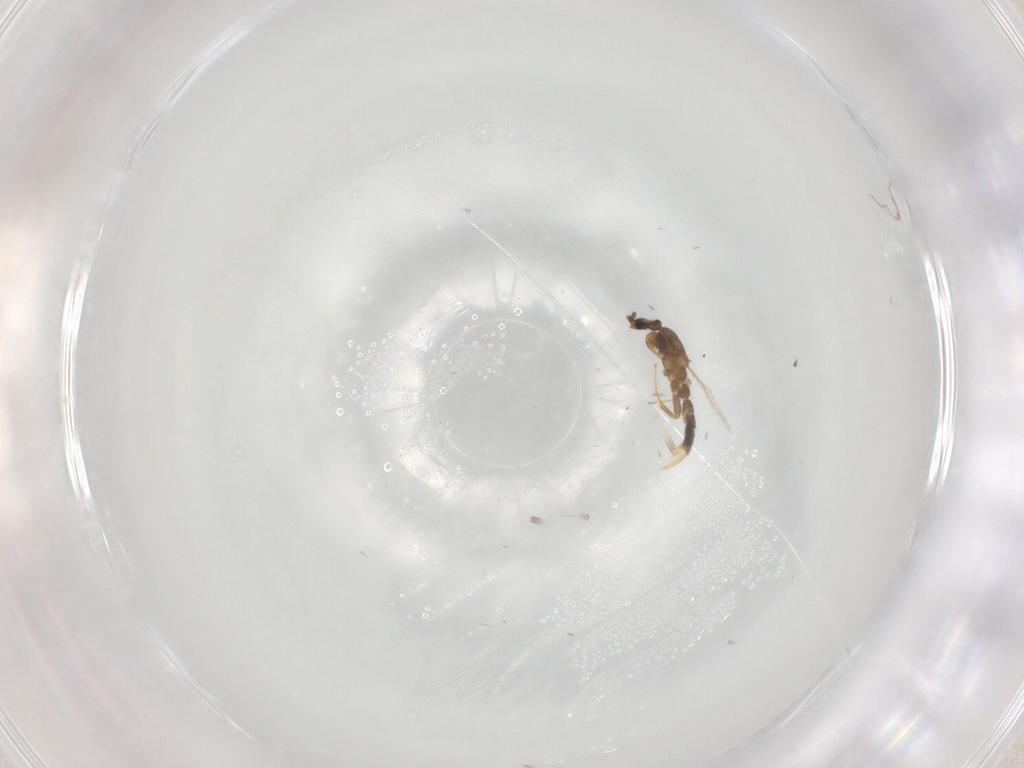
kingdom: Animalia
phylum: Arthropoda
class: Insecta
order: Hymenoptera
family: Formicidae
